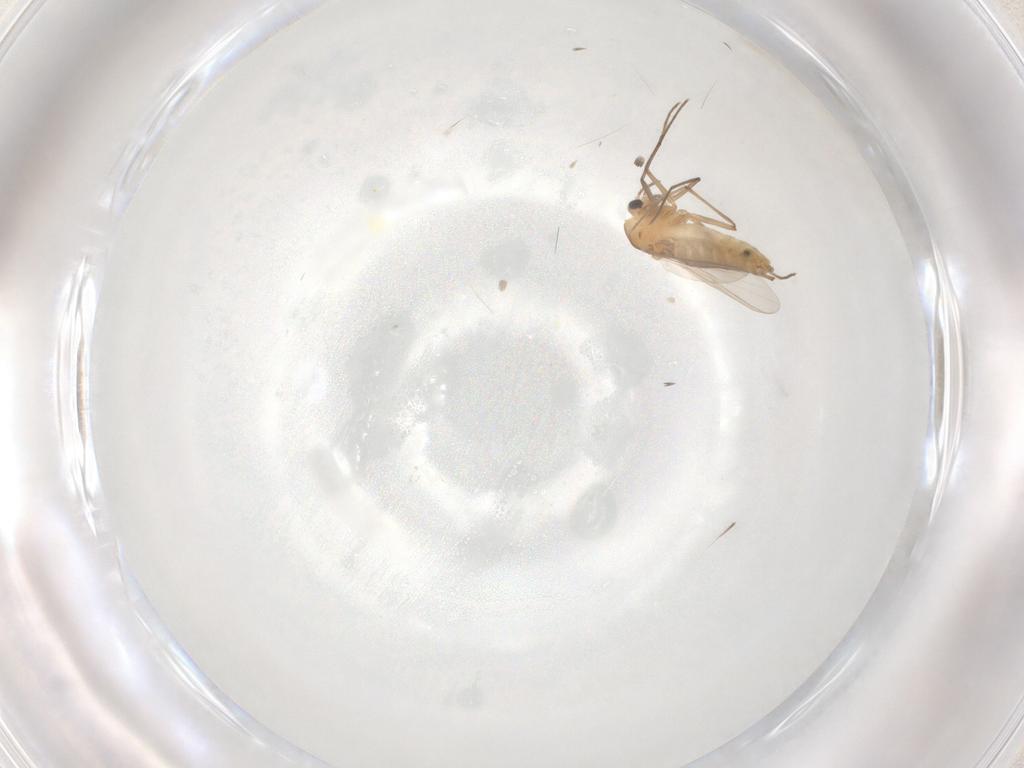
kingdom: Animalia
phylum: Arthropoda
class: Insecta
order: Diptera
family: Chironomidae
